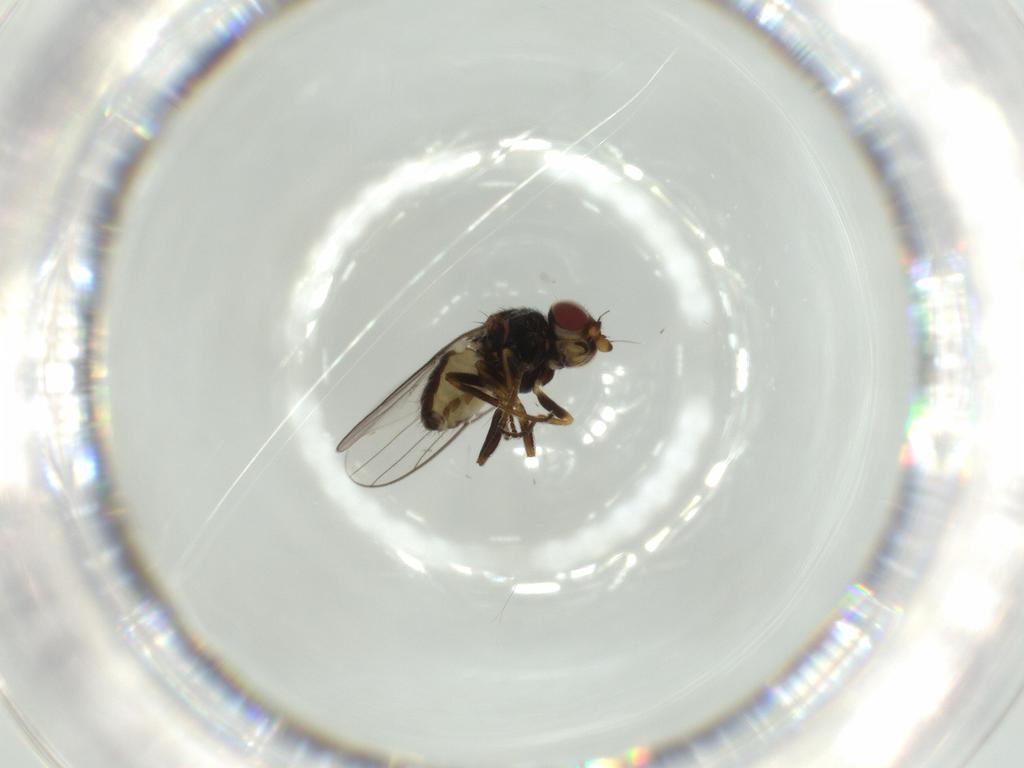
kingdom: Animalia
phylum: Arthropoda
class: Insecta
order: Diptera
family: Chloropidae
